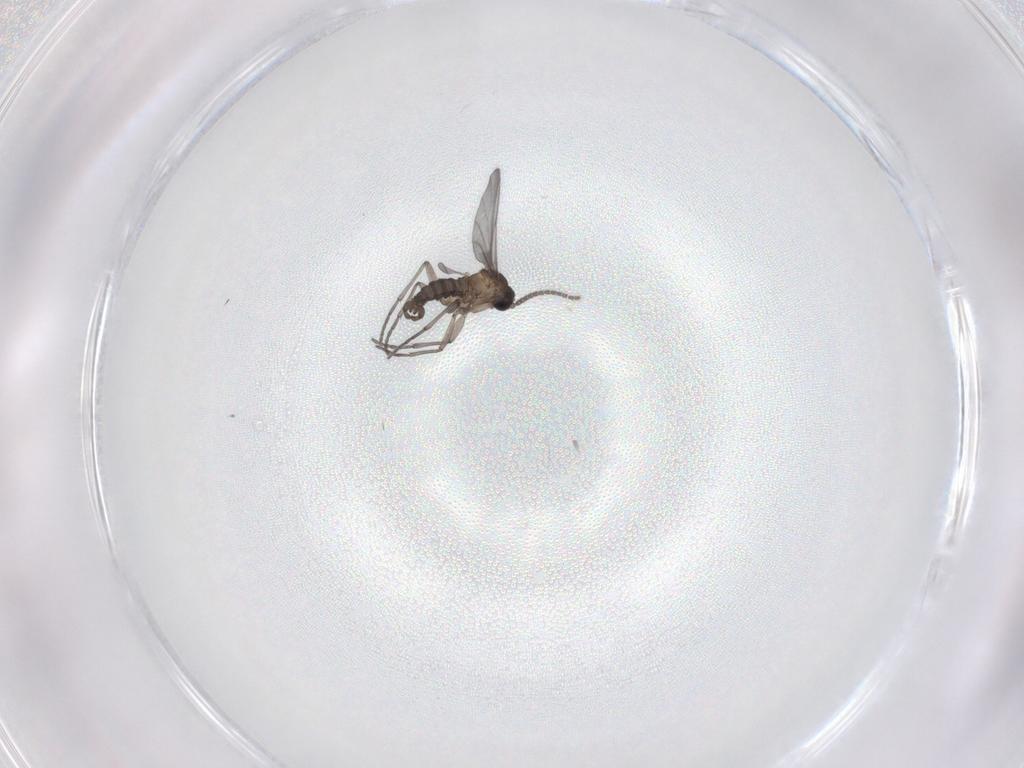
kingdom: Animalia
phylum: Arthropoda
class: Insecta
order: Diptera
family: Sciaridae
